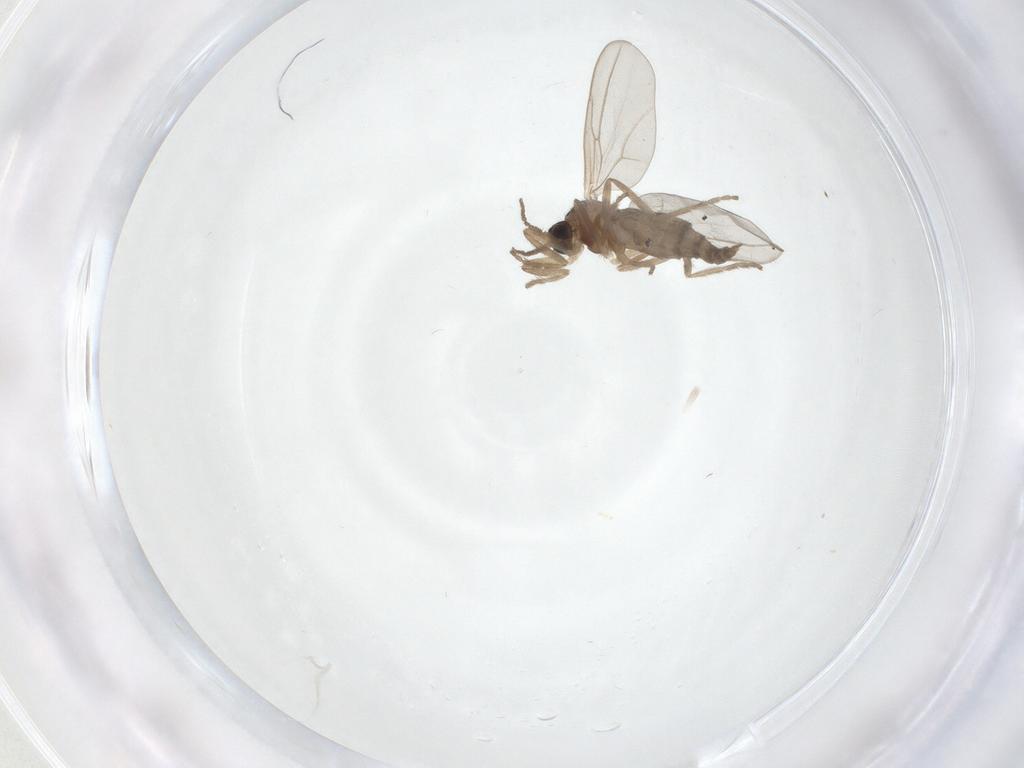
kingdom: Animalia
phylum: Arthropoda
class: Insecta
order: Diptera
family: Cecidomyiidae
